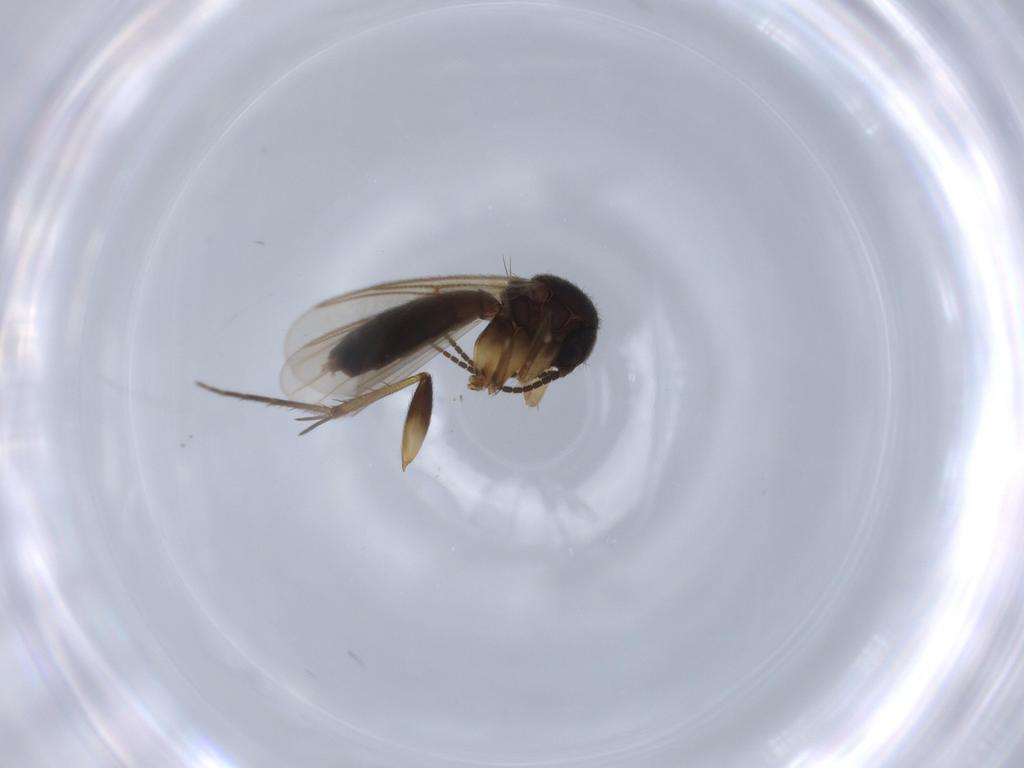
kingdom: Animalia
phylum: Arthropoda
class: Insecta
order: Diptera
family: Mycetophilidae
